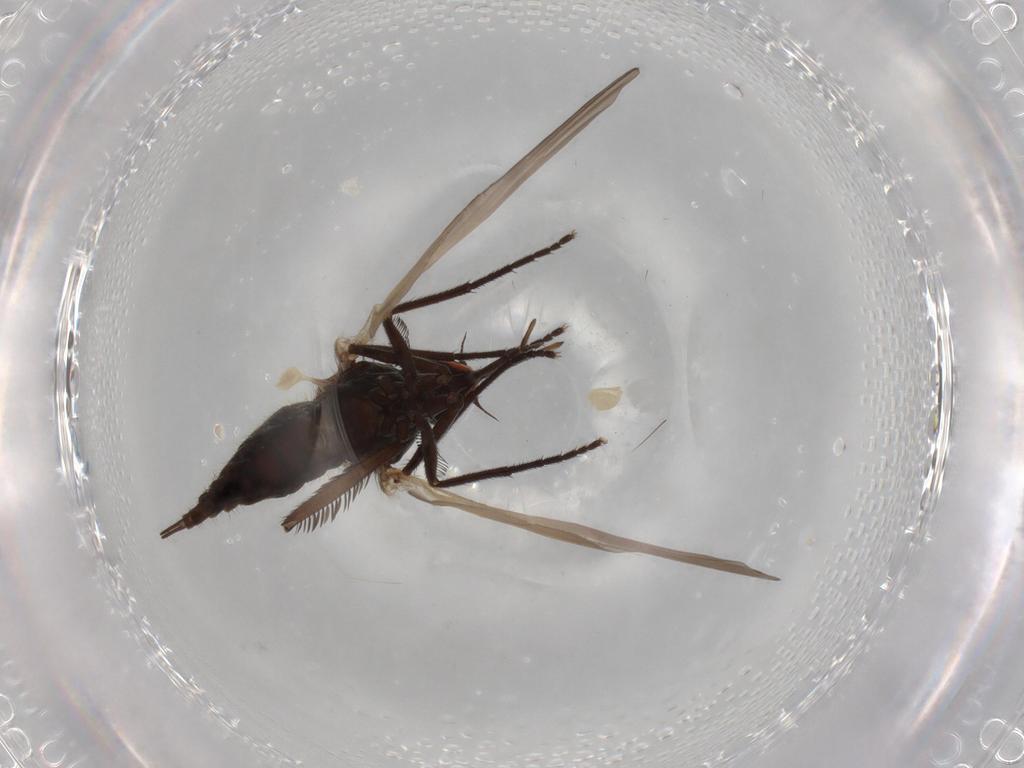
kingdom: Animalia
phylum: Arthropoda
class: Insecta
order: Diptera
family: Empididae
